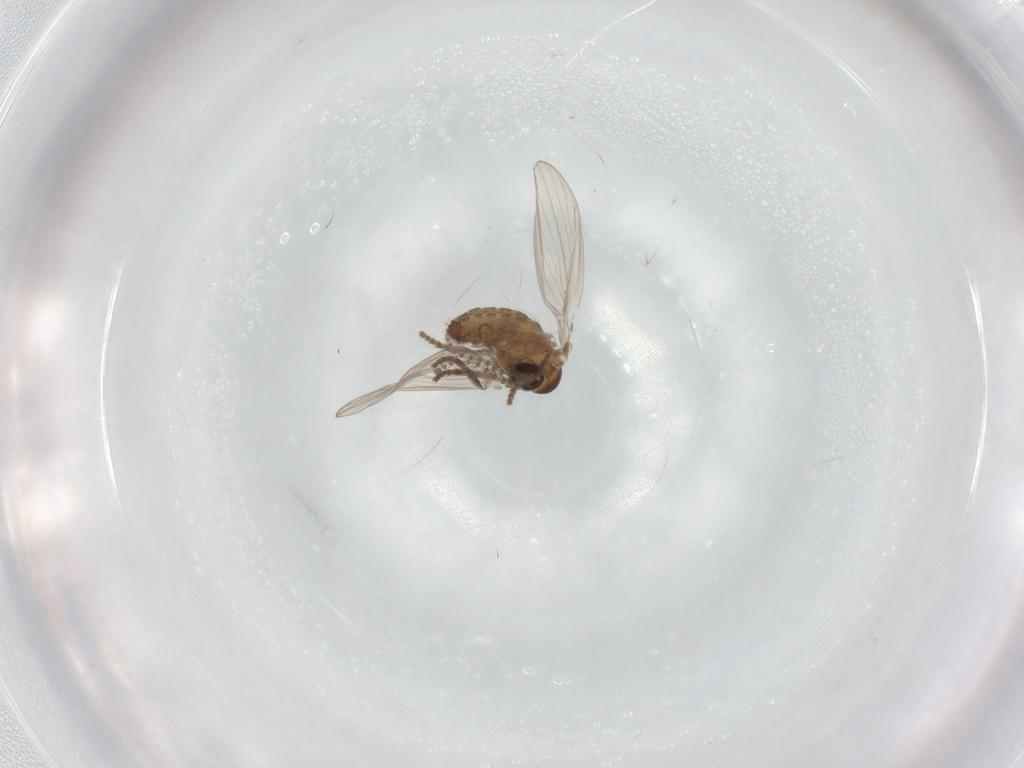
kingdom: Animalia
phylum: Arthropoda
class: Insecta
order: Diptera
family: Psychodidae
